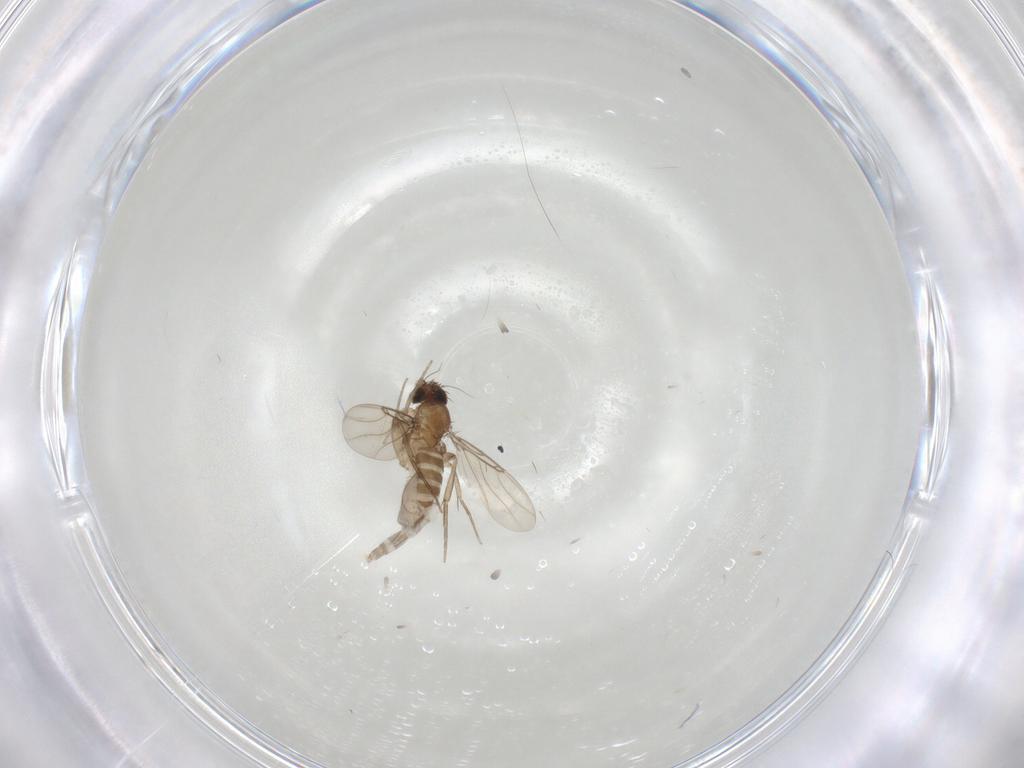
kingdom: Animalia
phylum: Arthropoda
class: Insecta
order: Diptera
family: Phoridae
